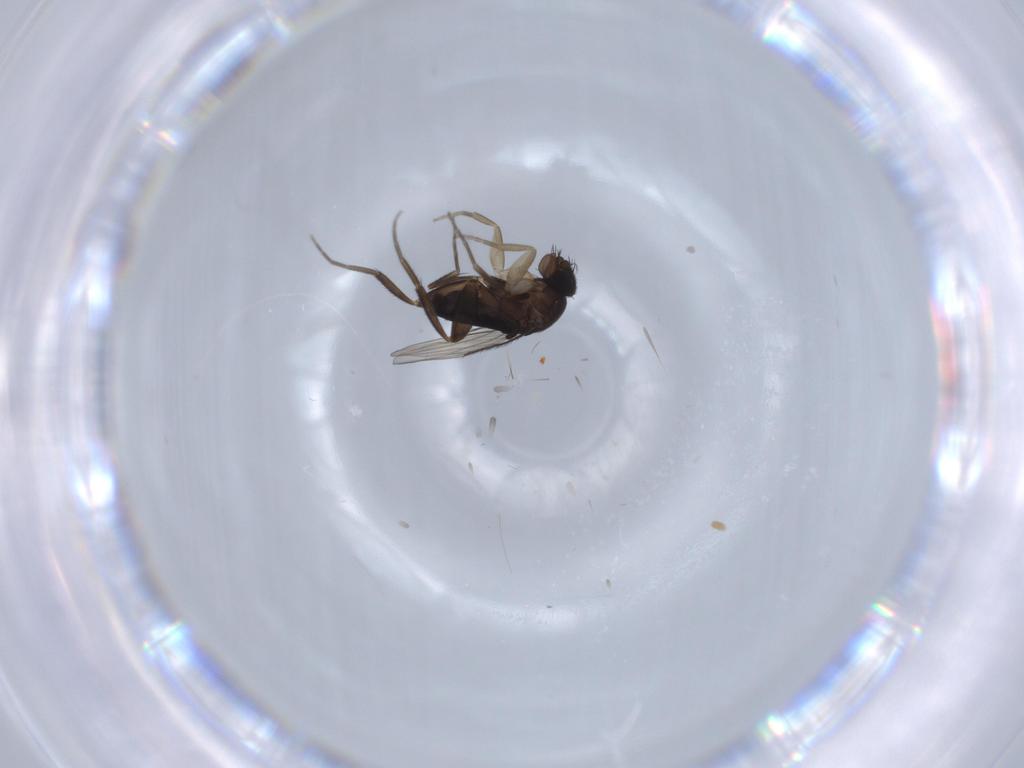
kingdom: Animalia
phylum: Arthropoda
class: Insecta
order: Diptera
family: Phoridae
